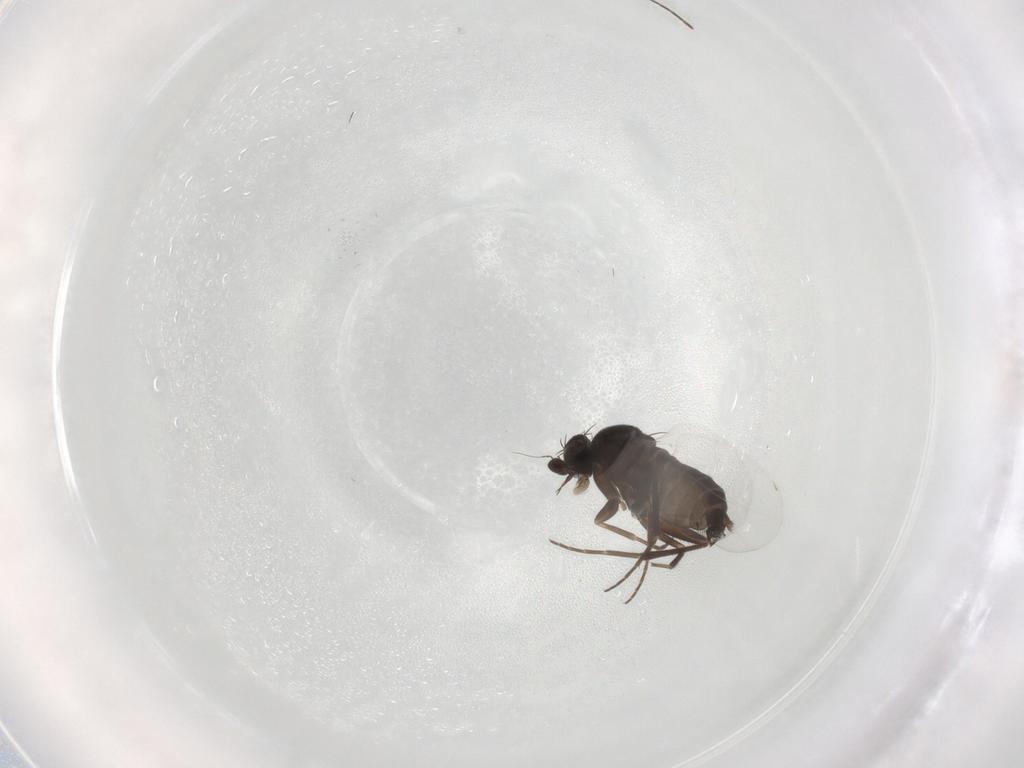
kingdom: Animalia
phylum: Arthropoda
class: Insecta
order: Diptera
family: Phoridae
